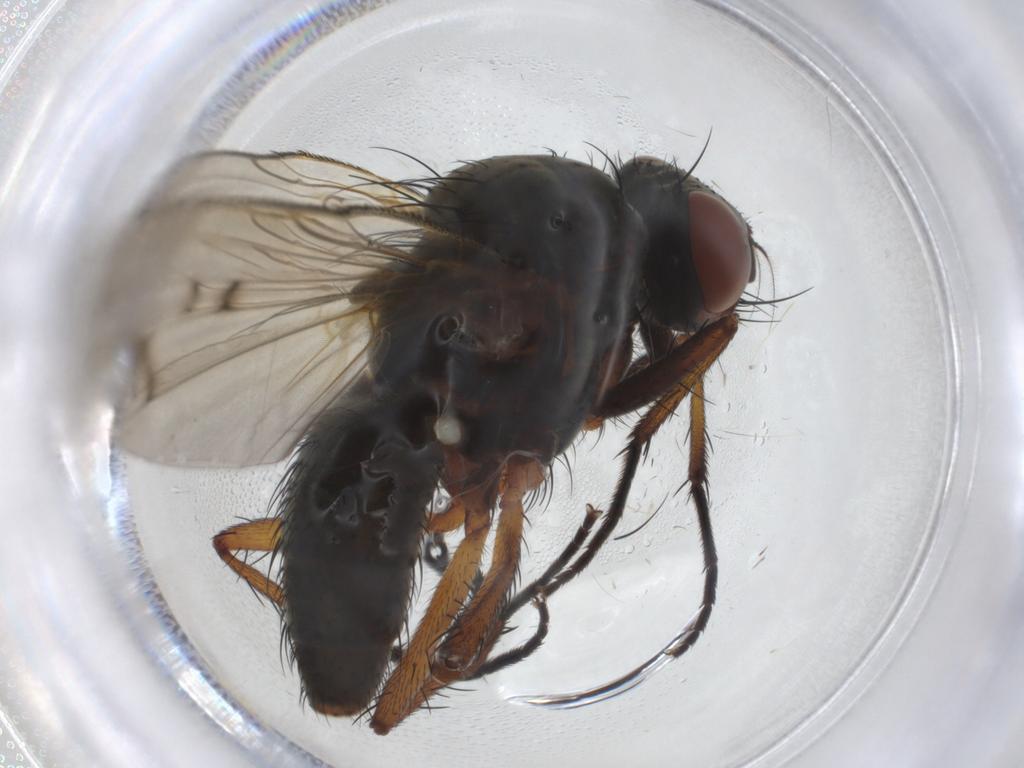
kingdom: Animalia
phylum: Arthropoda
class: Insecta
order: Diptera
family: Anthomyiidae
